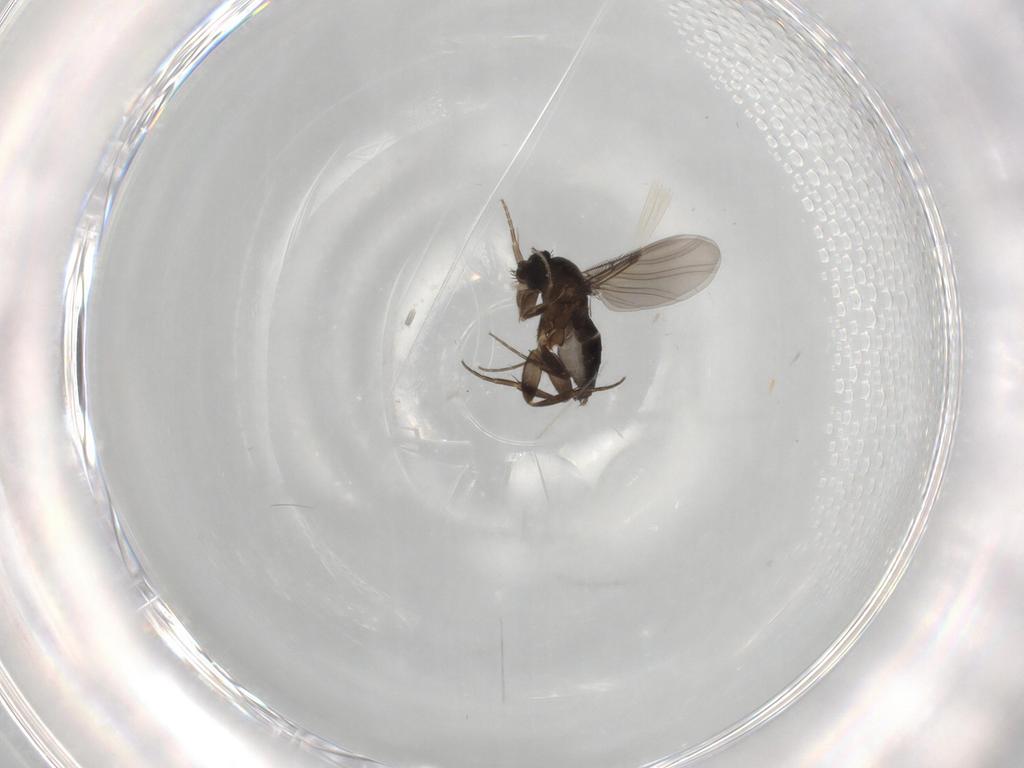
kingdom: Animalia
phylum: Arthropoda
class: Insecta
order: Diptera
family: Phoridae
